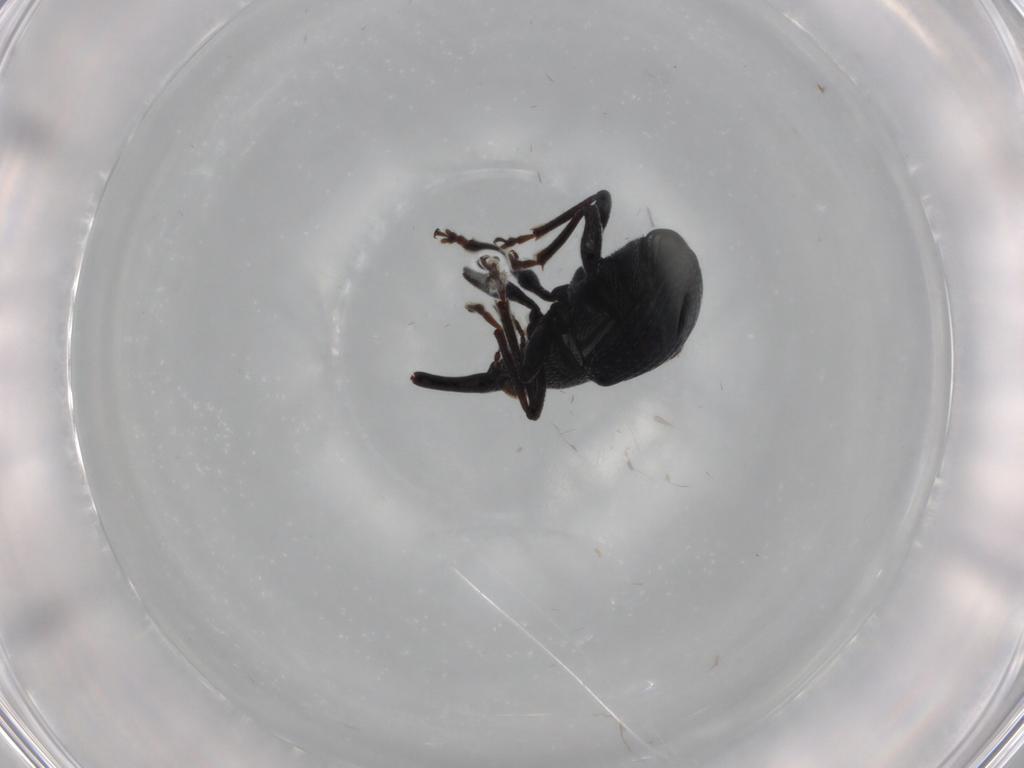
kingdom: Animalia
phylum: Arthropoda
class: Insecta
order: Coleoptera
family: Brentidae
